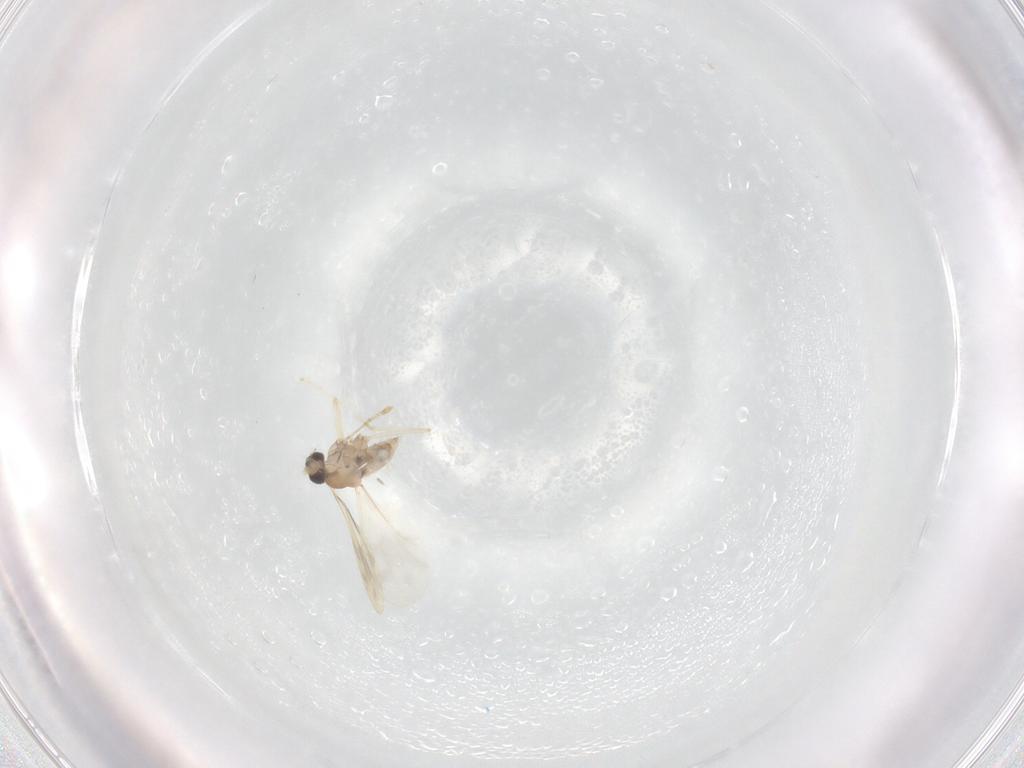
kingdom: Animalia
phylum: Arthropoda
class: Insecta
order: Diptera
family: Cecidomyiidae
